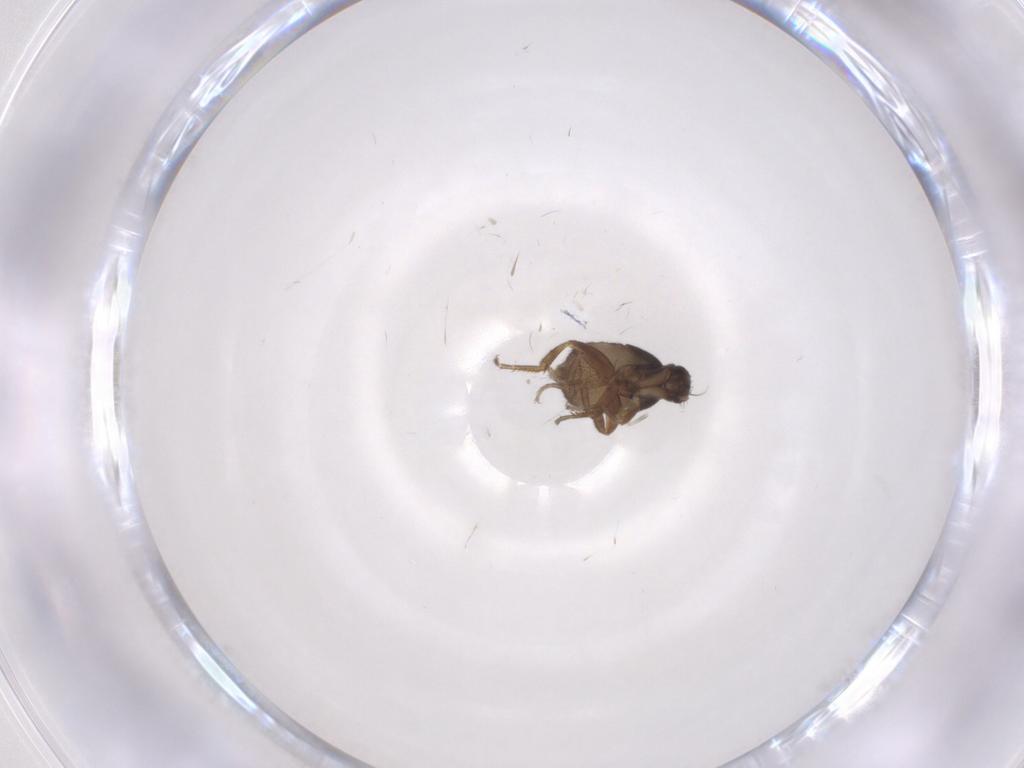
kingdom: Animalia
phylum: Arthropoda
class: Insecta
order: Diptera
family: Phoridae
